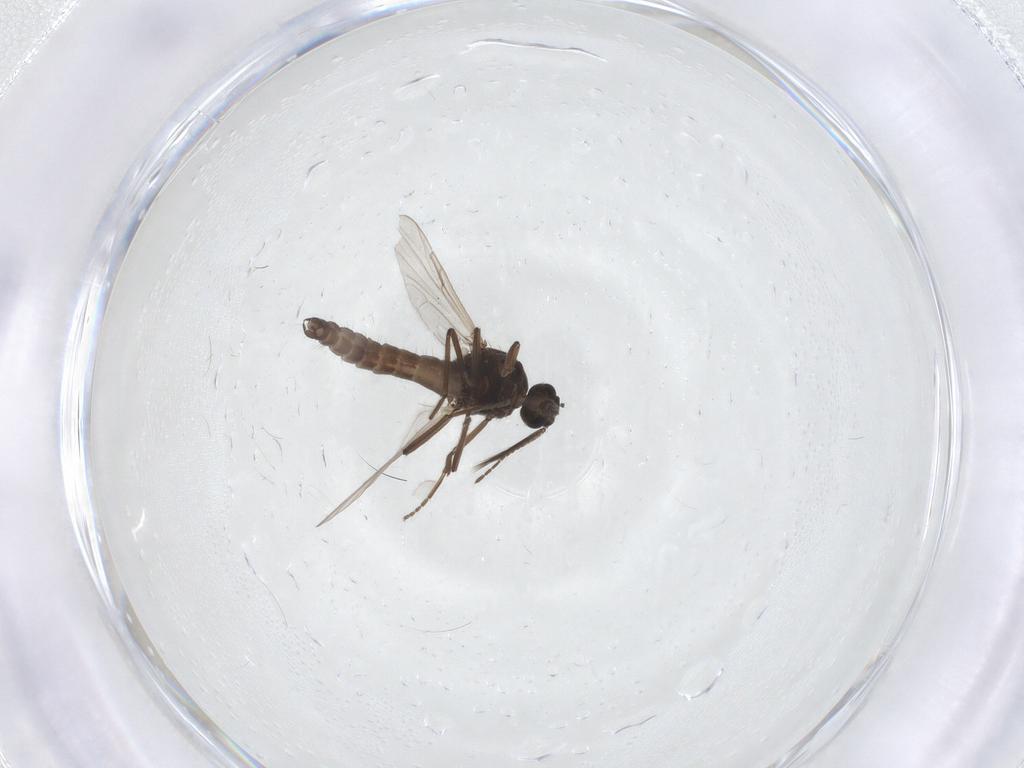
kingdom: Animalia
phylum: Arthropoda
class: Insecta
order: Diptera
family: Ceratopogonidae
